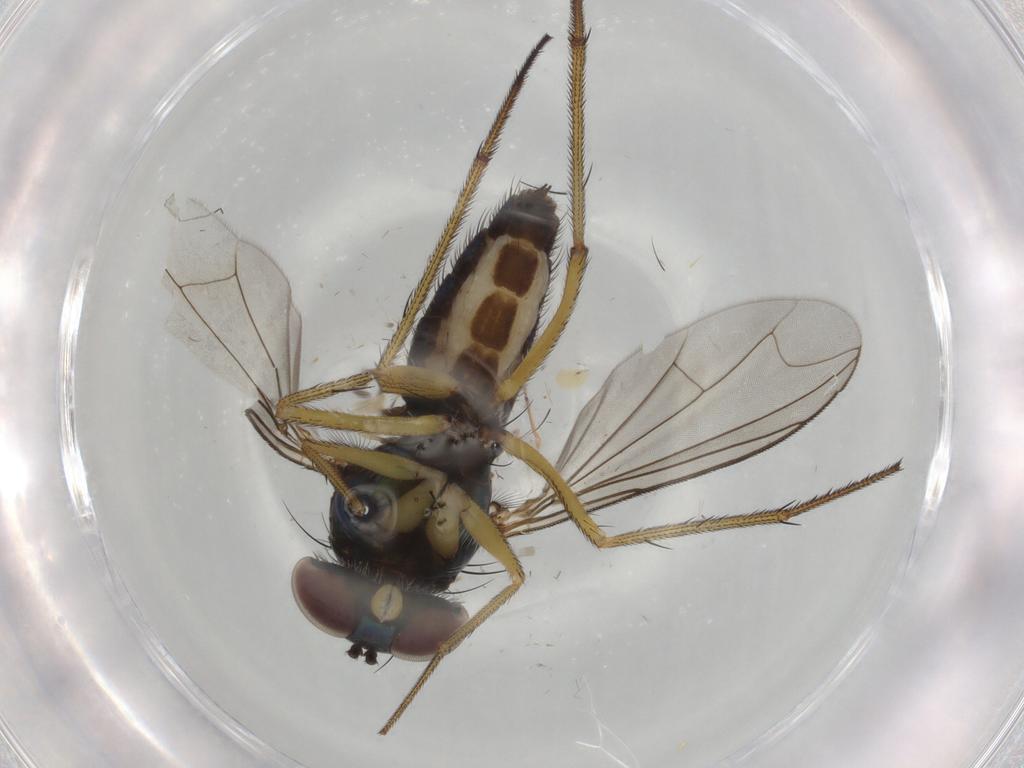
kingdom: Animalia
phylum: Arthropoda
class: Insecta
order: Diptera
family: Dolichopodidae
